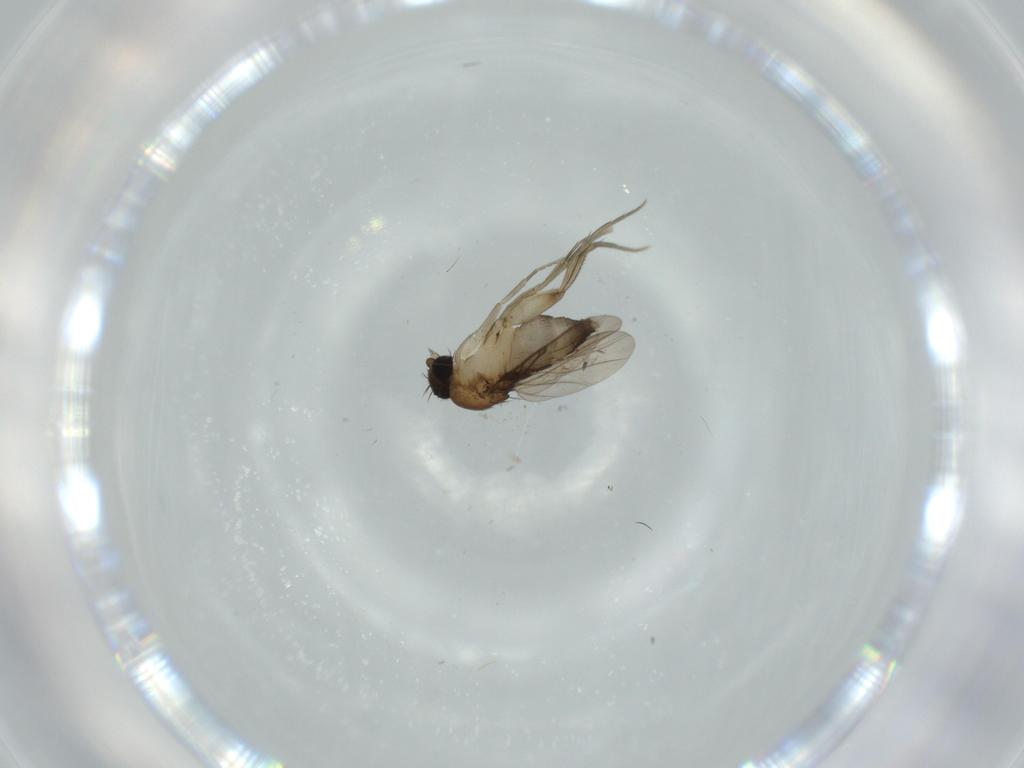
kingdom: Animalia
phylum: Arthropoda
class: Insecta
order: Diptera
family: Phoridae
